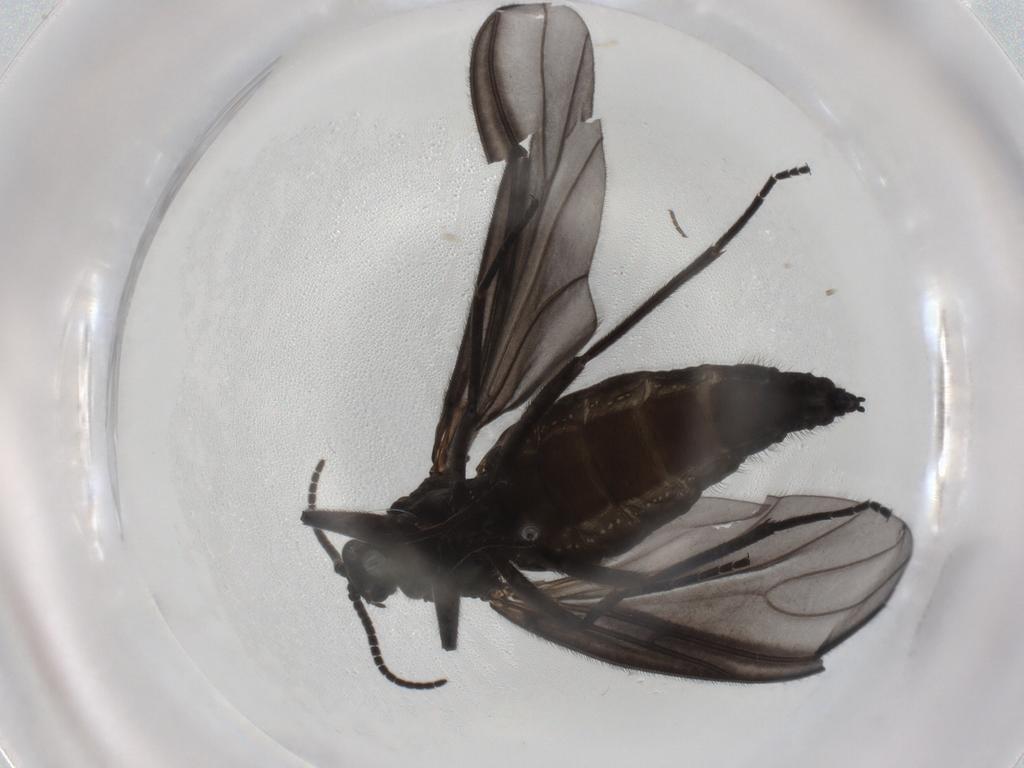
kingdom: Animalia
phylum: Arthropoda
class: Insecta
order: Diptera
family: Sciaridae
